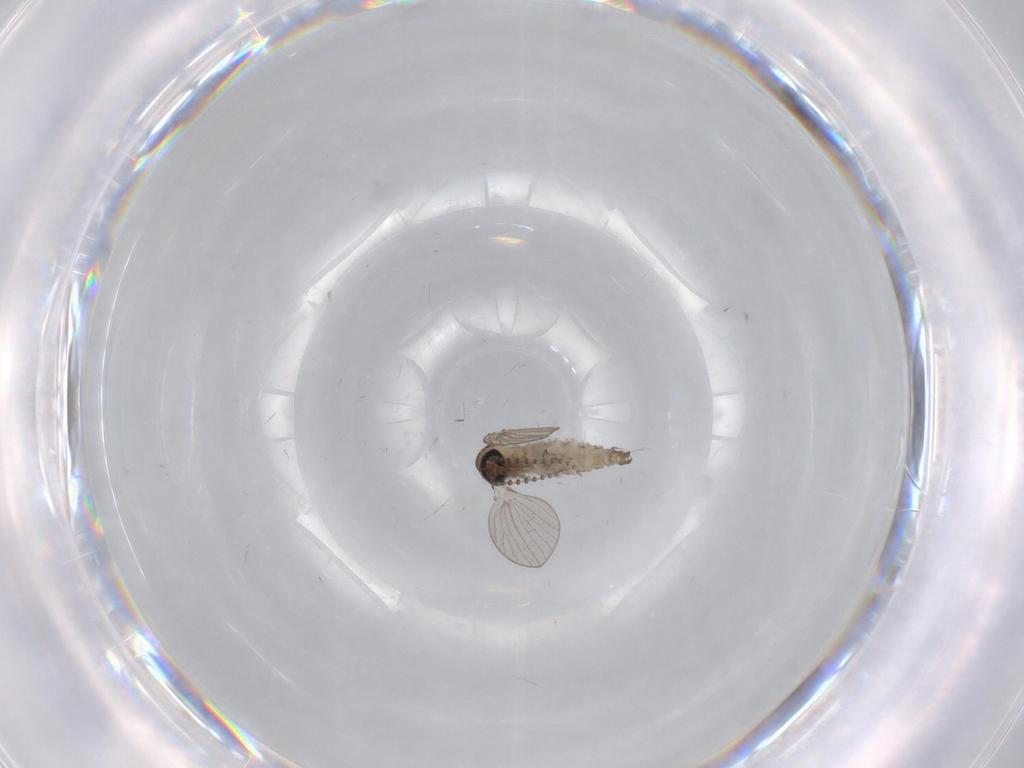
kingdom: Animalia
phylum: Arthropoda
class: Insecta
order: Diptera
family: Psychodidae
